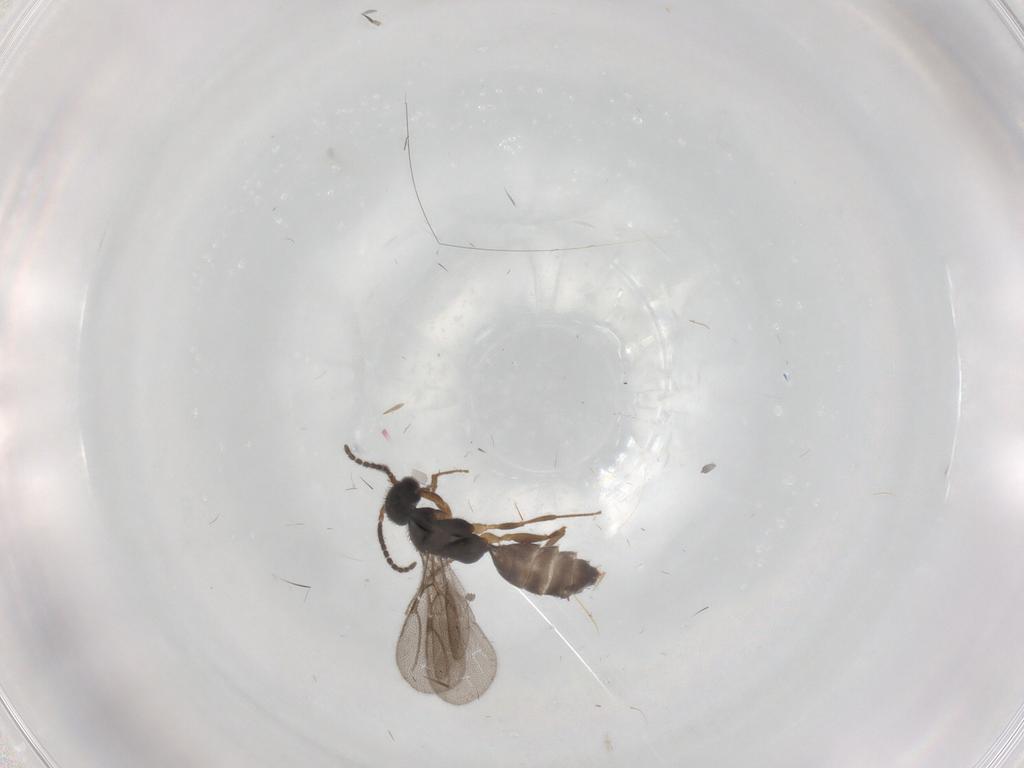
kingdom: Animalia
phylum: Arthropoda
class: Insecta
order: Hymenoptera
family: Bethylidae
